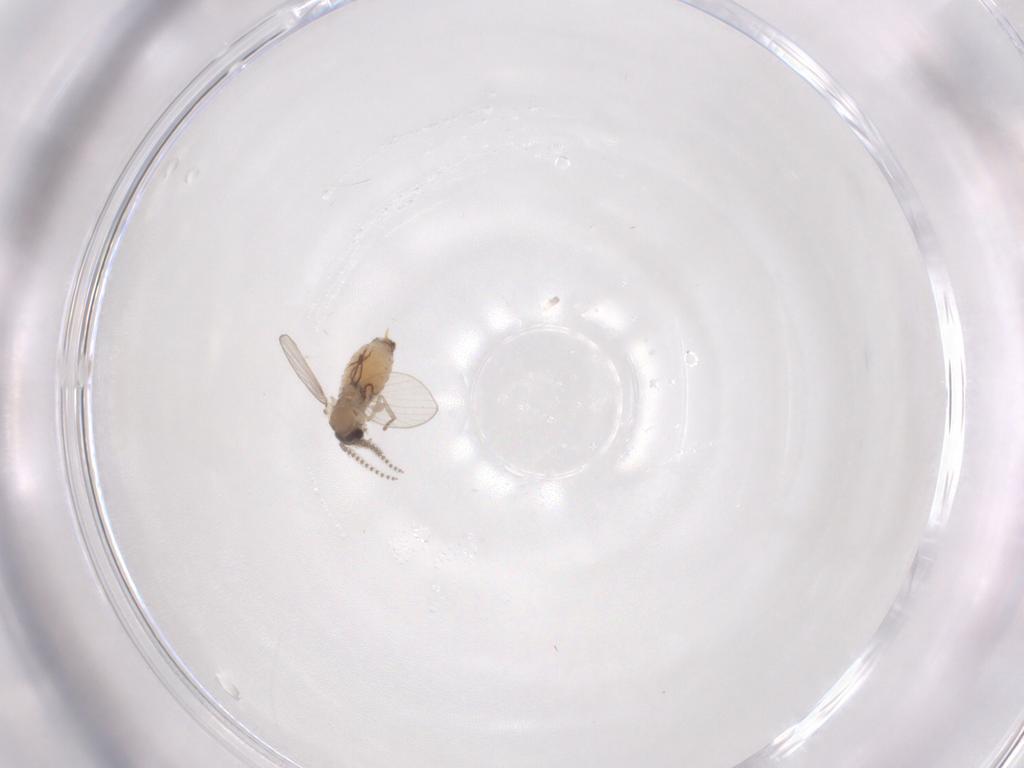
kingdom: Animalia
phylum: Arthropoda
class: Insecta
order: Diptera
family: Psychodidae
